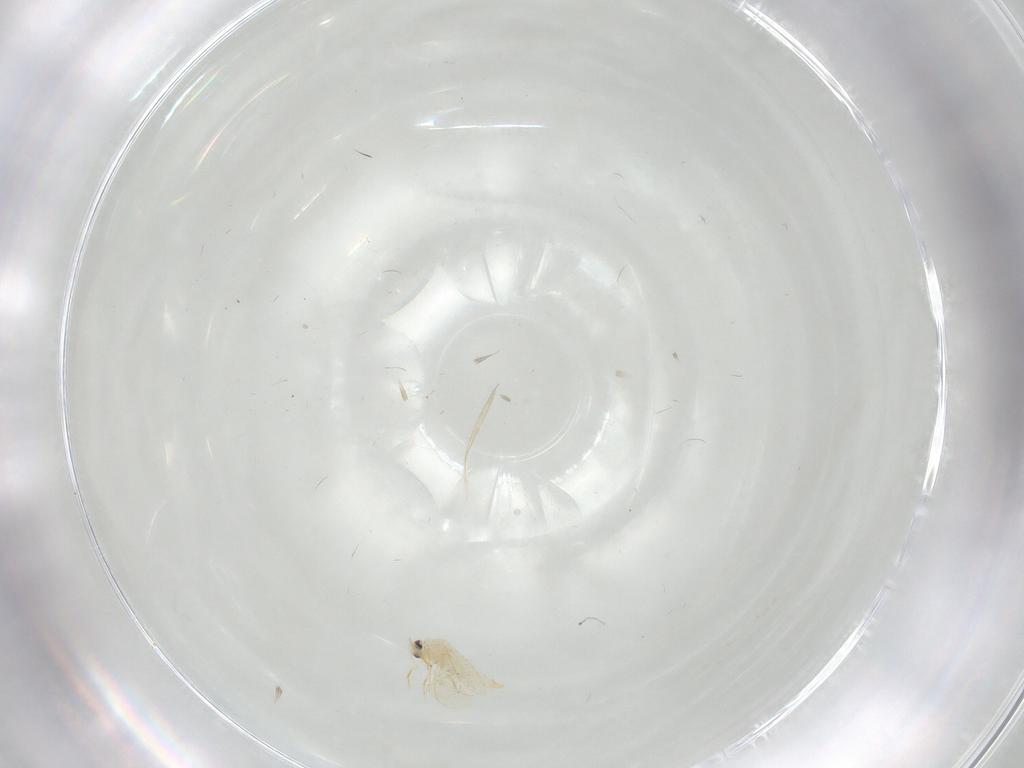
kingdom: Animalia
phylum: Arthropoda
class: Insecta
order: Hemiptera
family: Aleyrodidae
